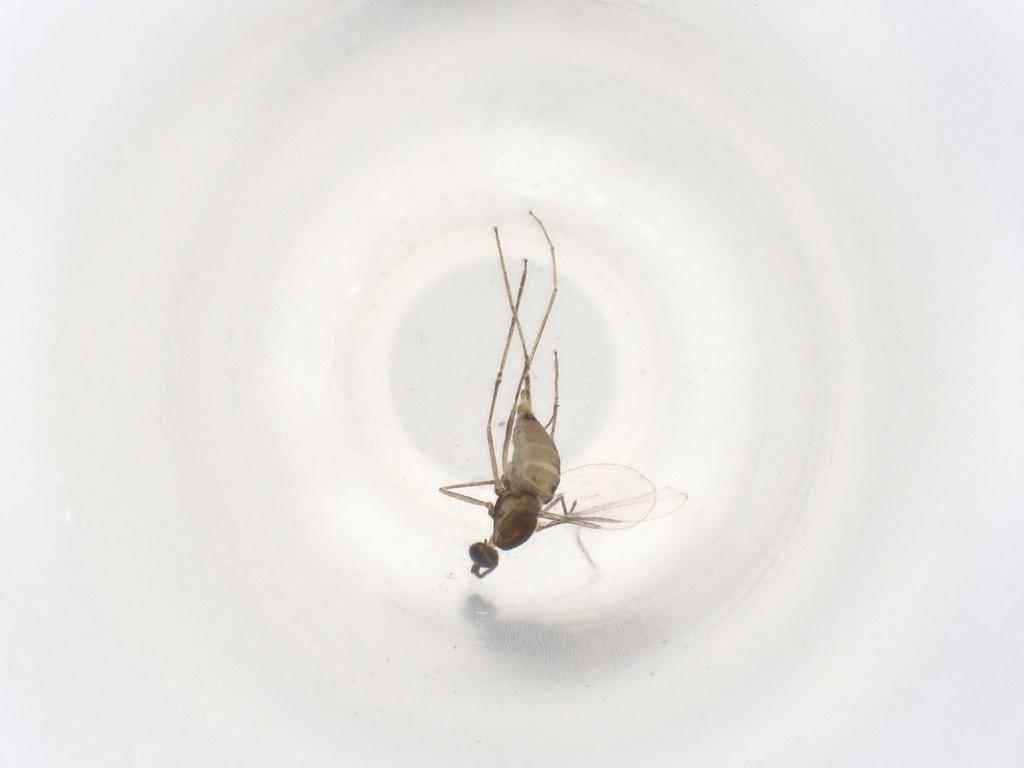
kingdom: Animalia
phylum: Arthropoda
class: Insecta
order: Diptera
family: Cecidomyiidae
